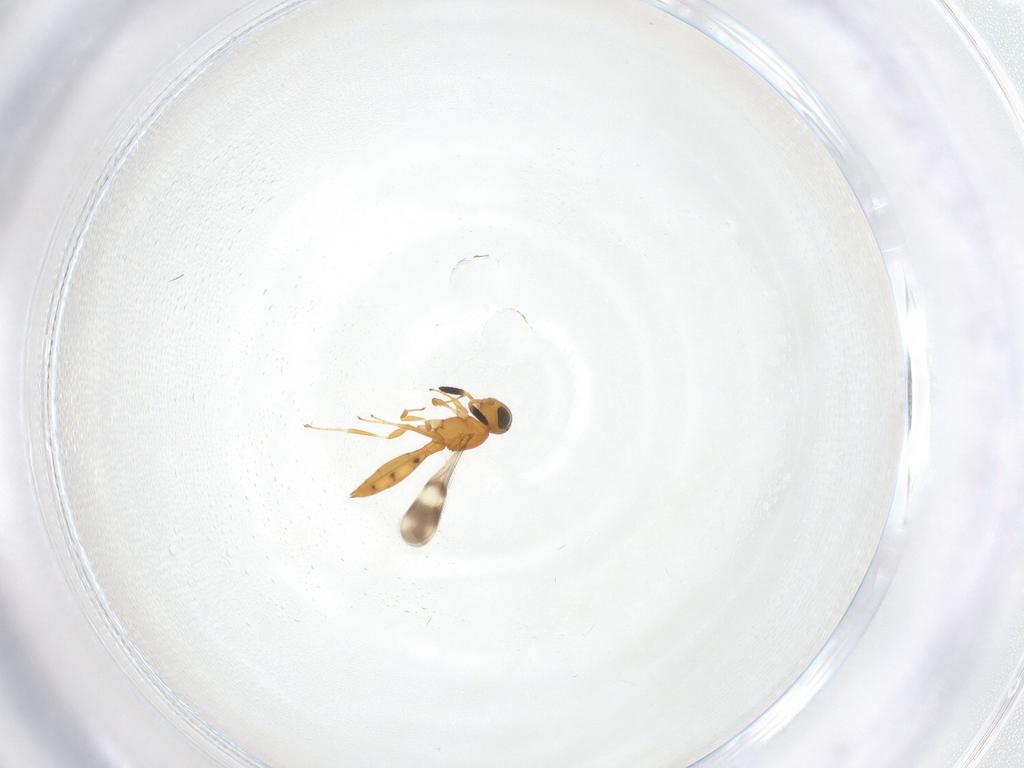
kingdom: Animalia
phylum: Arthropoda
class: Insecta
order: Hymenoptera
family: Scelionidae
